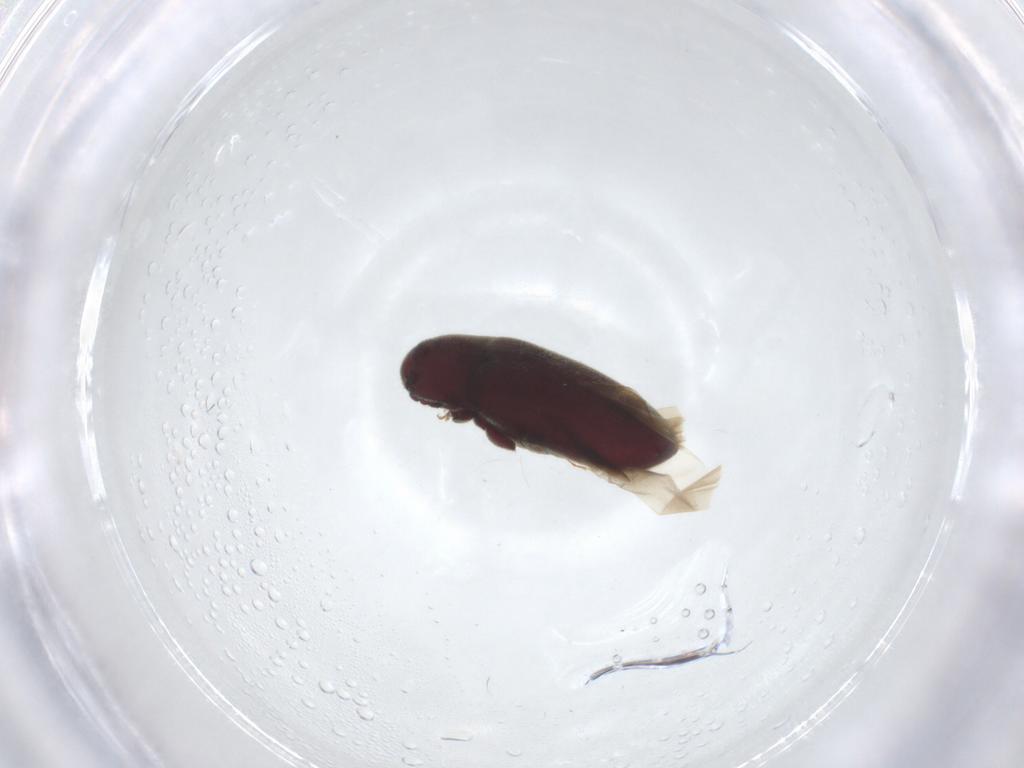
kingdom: Animalia
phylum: Arthropoda
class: Insecta
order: Coleoptera
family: Throscidae
